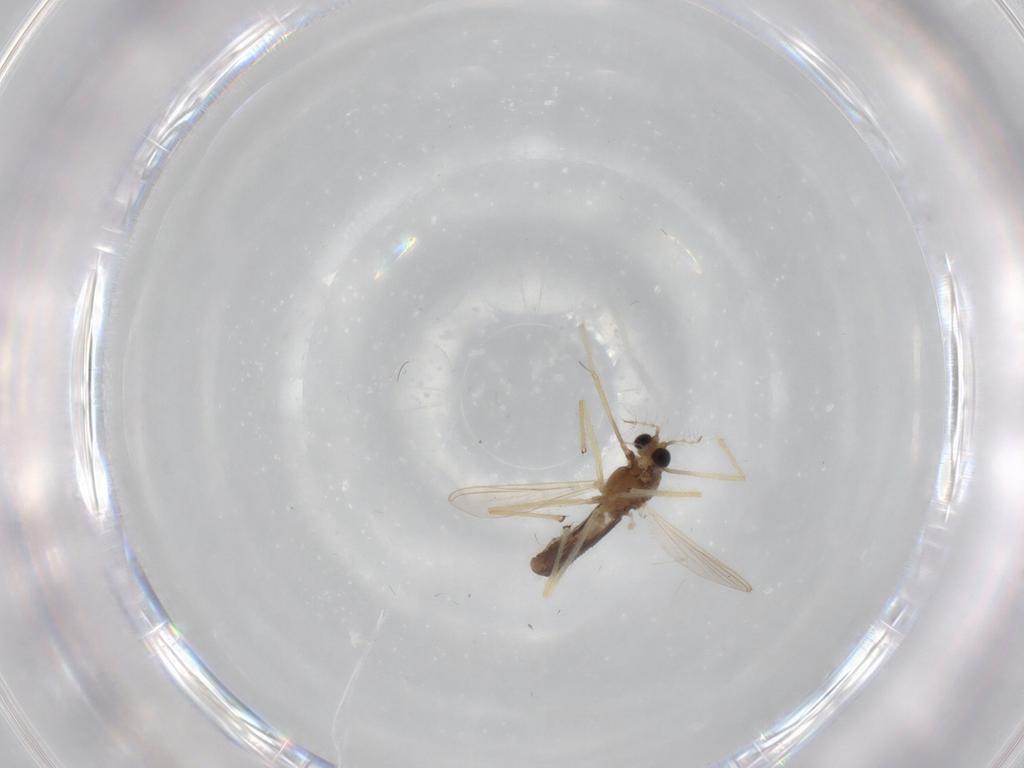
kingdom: Animalia
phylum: Arthropoda
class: Insecta
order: Diptera
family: Chironomidae
